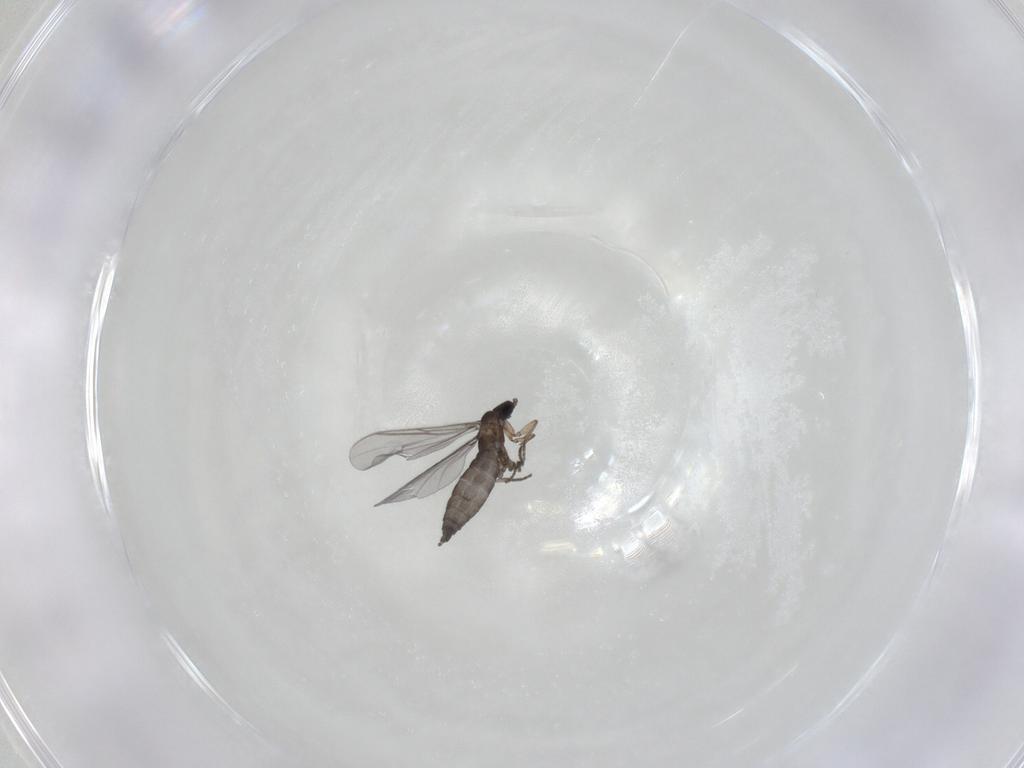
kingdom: Animalia
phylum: Arthropoda
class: Insecta
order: Diptera
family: Sciaridae
